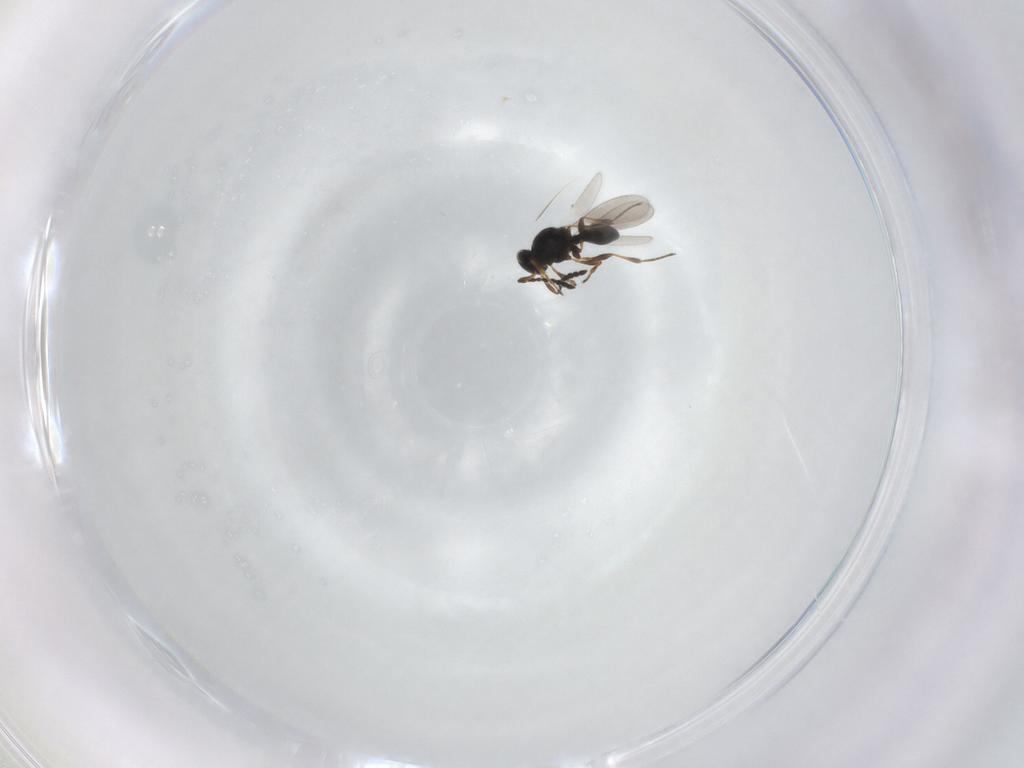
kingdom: Animalia
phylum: Arthropoda
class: Insecta
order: Hymenoptera
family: Platygastridae
